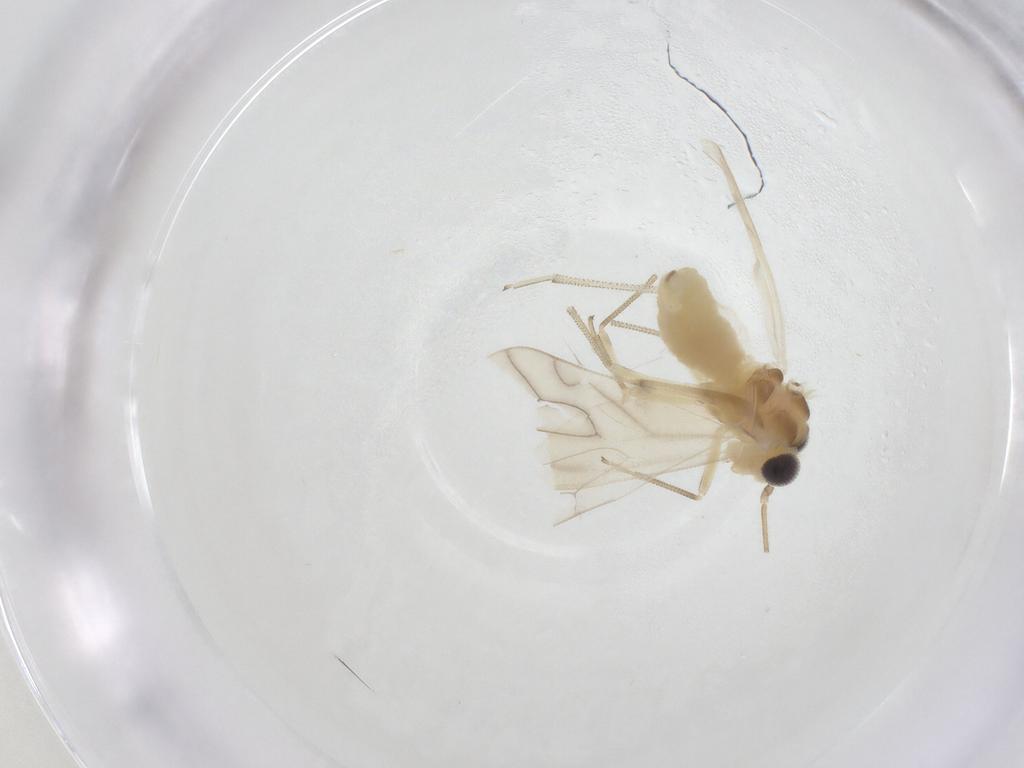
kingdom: Animalia
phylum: Arthropoda
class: Insecta
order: Psocodea
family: Caeciliusidae
